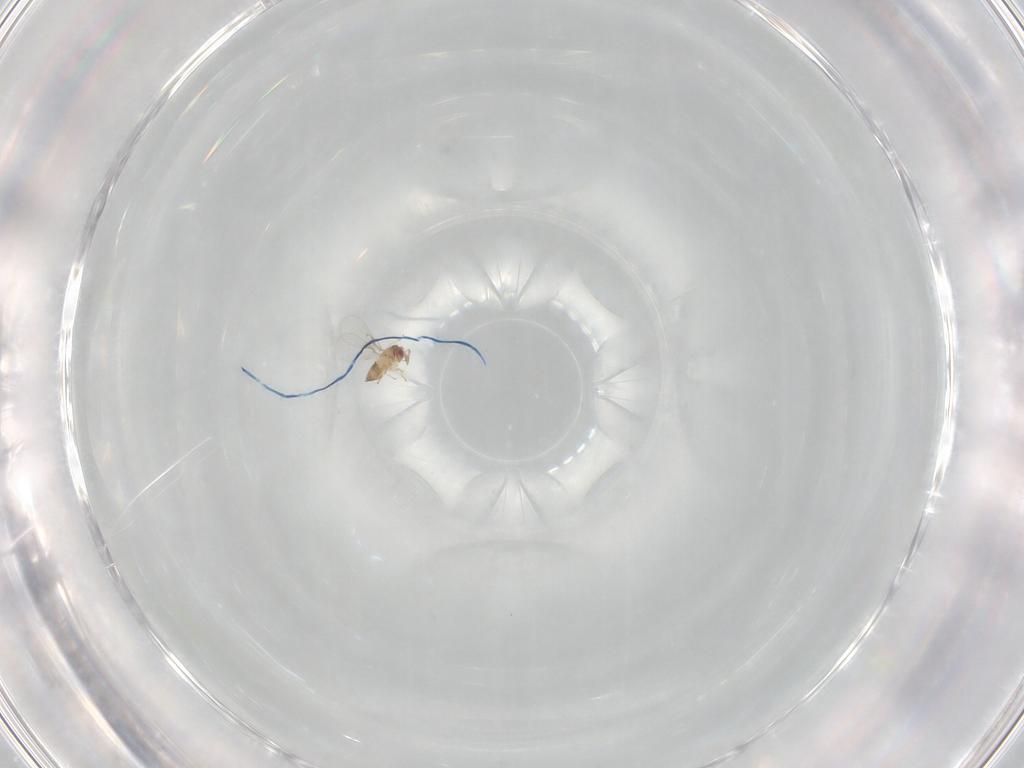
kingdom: Animalia
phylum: Arthropoda
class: Insecta
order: Hymenoptera
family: Trichogrammatidae
